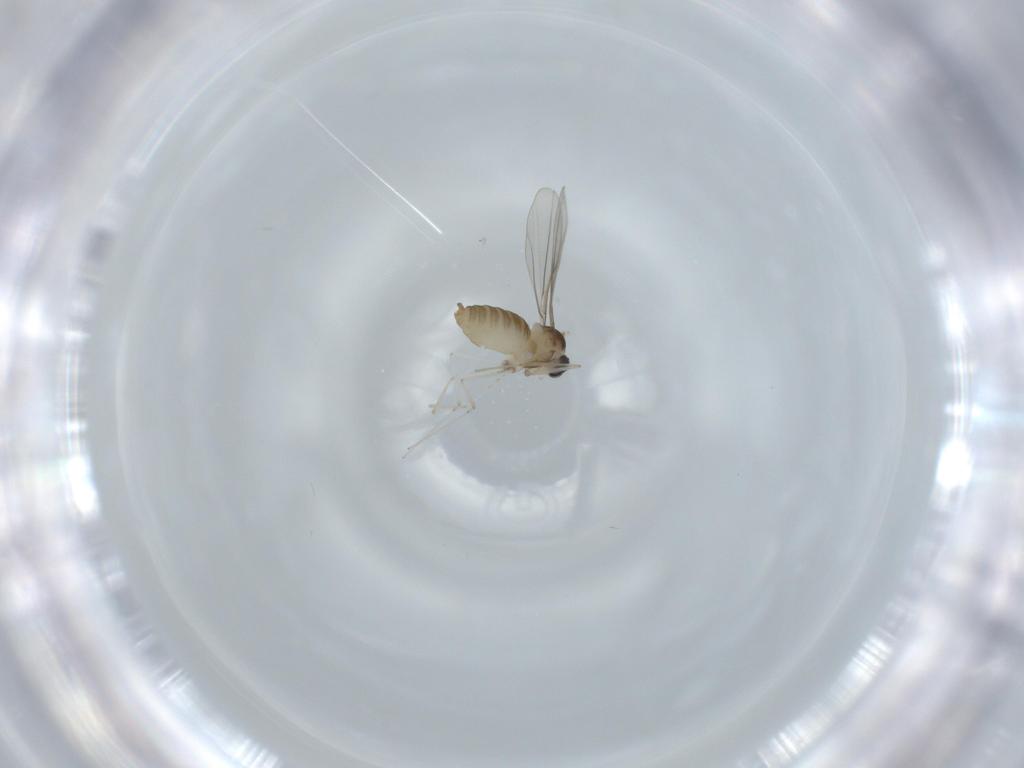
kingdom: Animalia
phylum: Arthropoda
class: Insecta
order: Diptera
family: Cecidomyiidae
